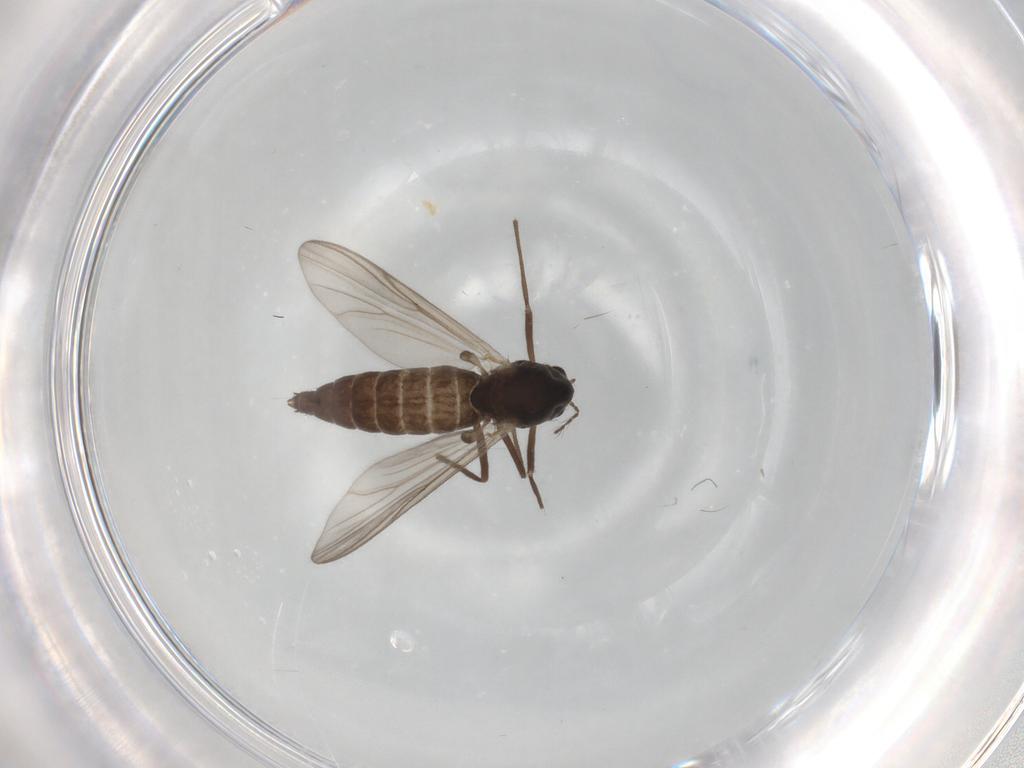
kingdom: Animalia
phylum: Arthropoda
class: Insecta
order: Diptera
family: Chironomidae
